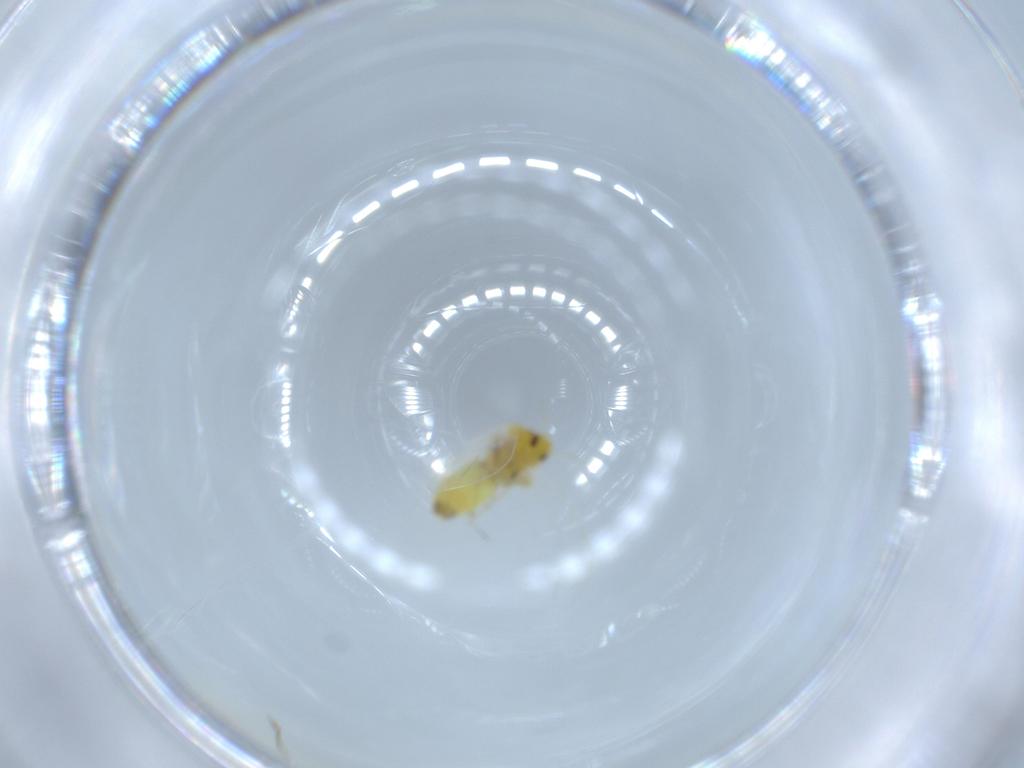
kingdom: Animalia
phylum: Arthropoda
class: Insecta
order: Hemiptera
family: Aleyrodidae
